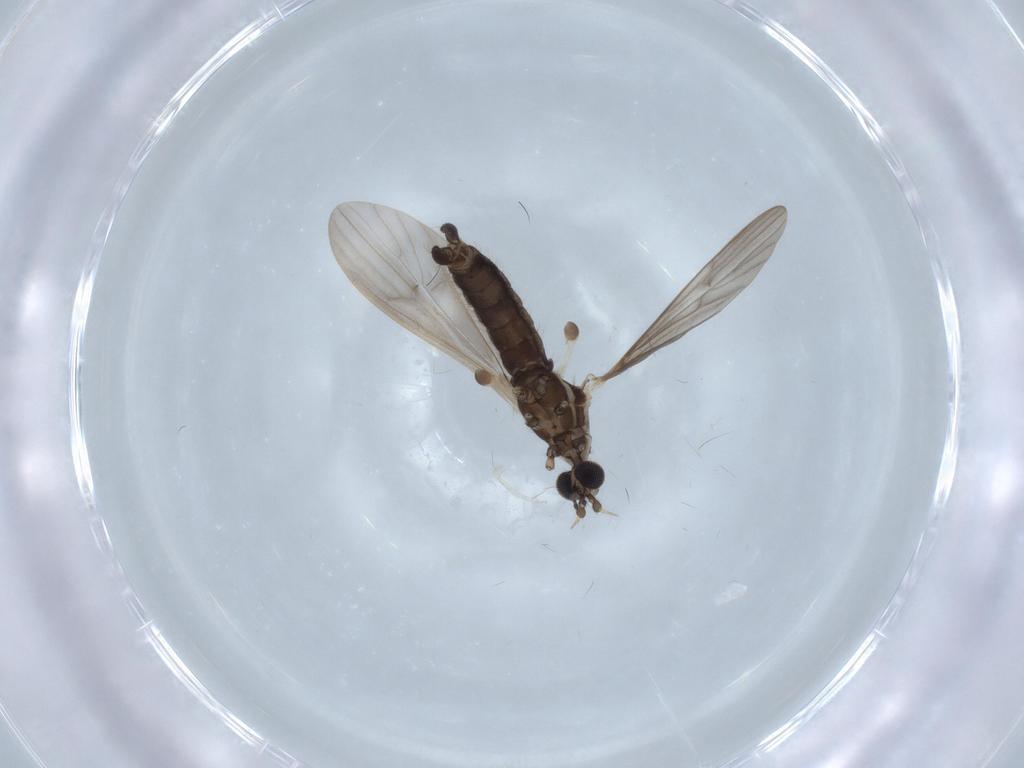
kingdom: Animalia
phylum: Arthropoda
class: Insecta
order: Diptera
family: Limoniidae
